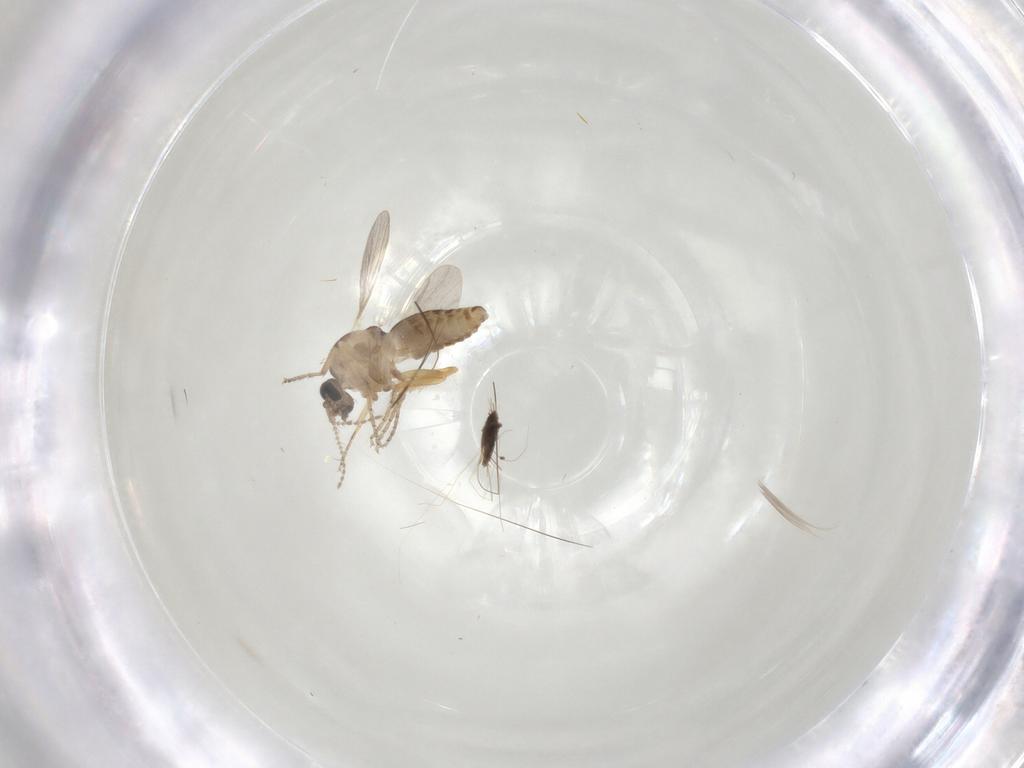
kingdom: Animalia
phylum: Arthropoda
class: Insecta
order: Diptera
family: Ceratopogonidae
